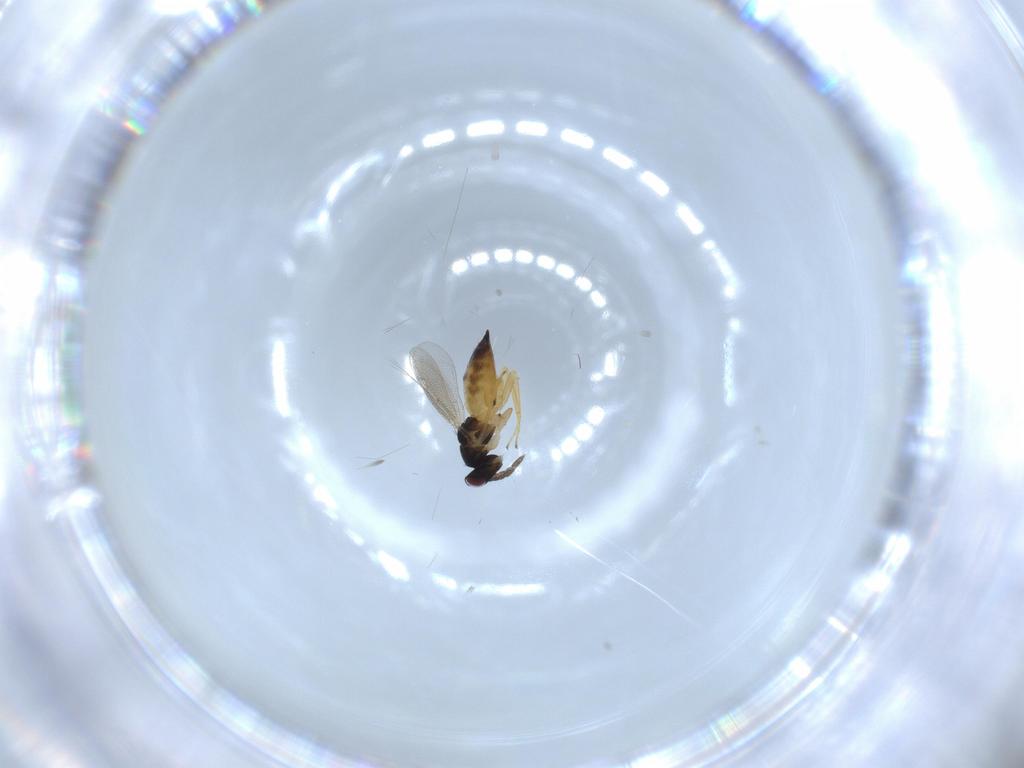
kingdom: Animalia
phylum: Arthropoda
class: Insecta
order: Hymenoptera
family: Eulophidae
